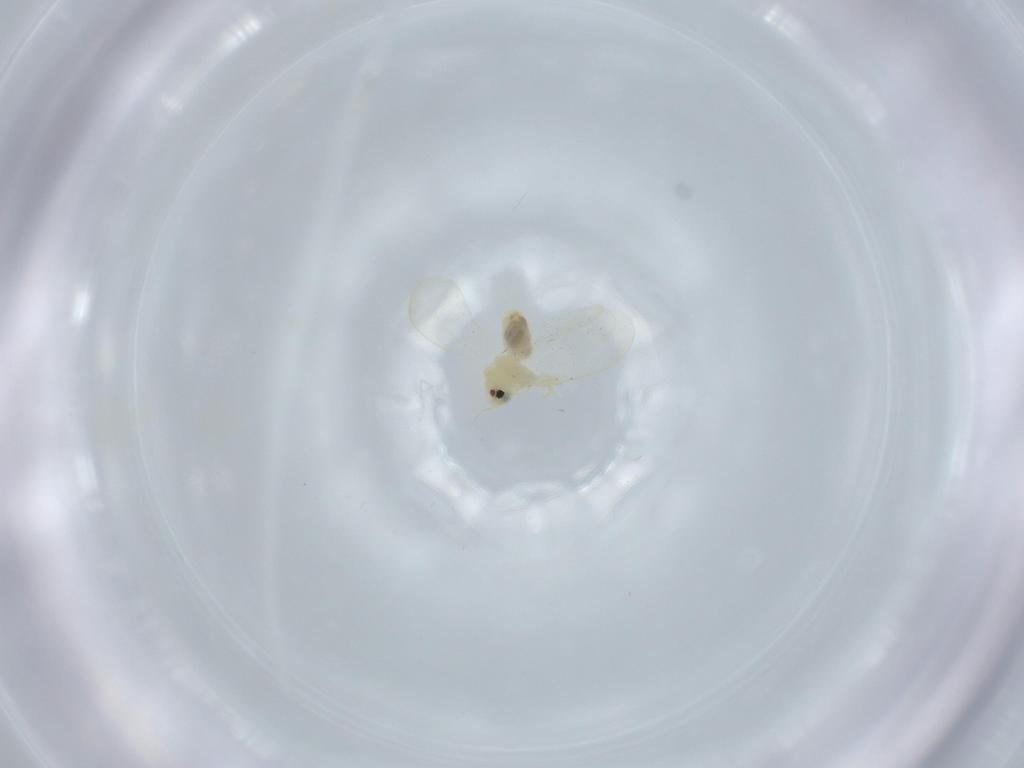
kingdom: Animalia
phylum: Arthropoda
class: Insecta
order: Hemiptera
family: Aleyrodidae
